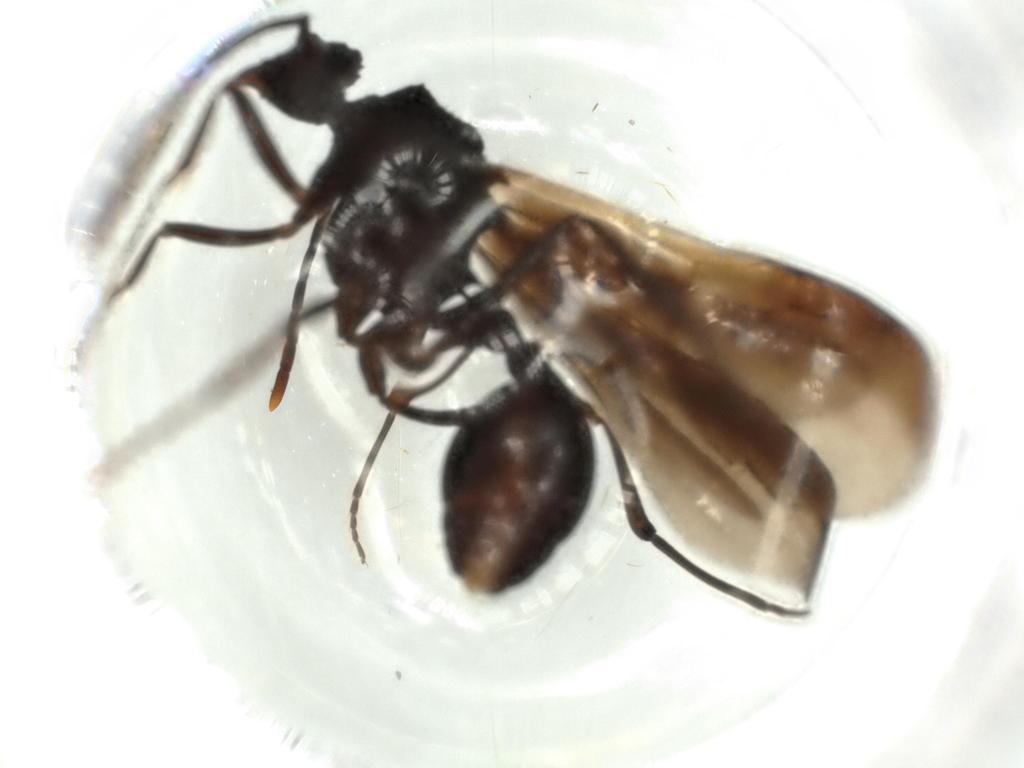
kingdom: Animalia
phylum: Arthropoda
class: Insecta
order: Hymenoptera
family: Formicidae
